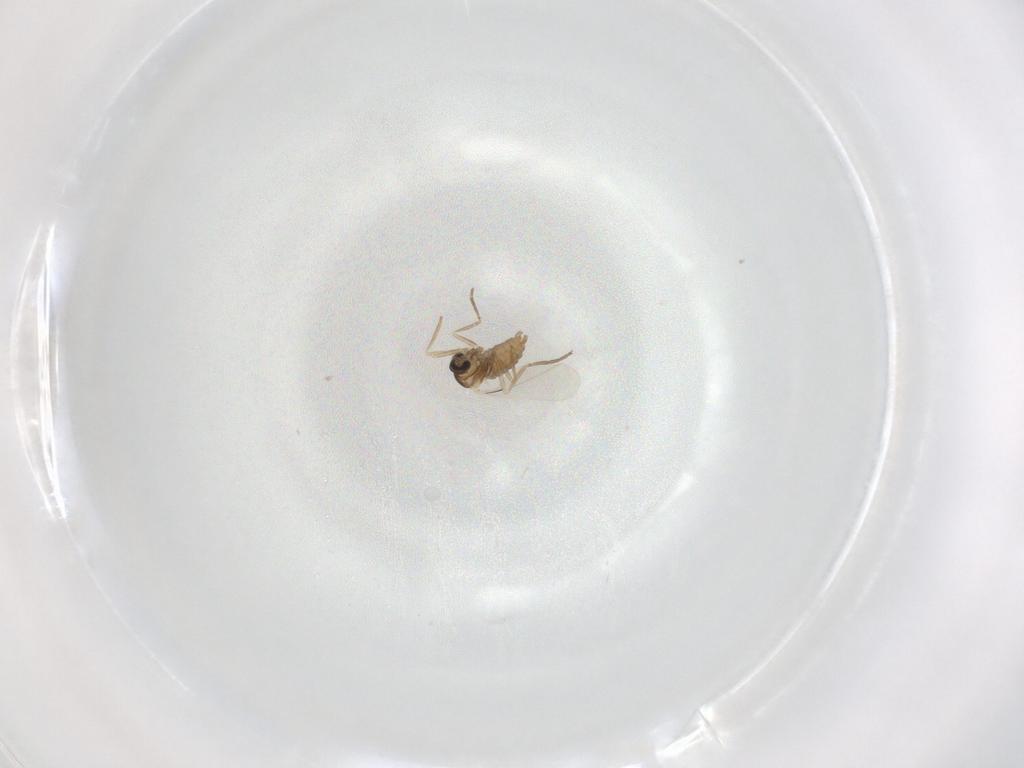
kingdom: Animalia
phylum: Arthropoda
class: Insecta
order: Diptera
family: Cecidomyiidae
